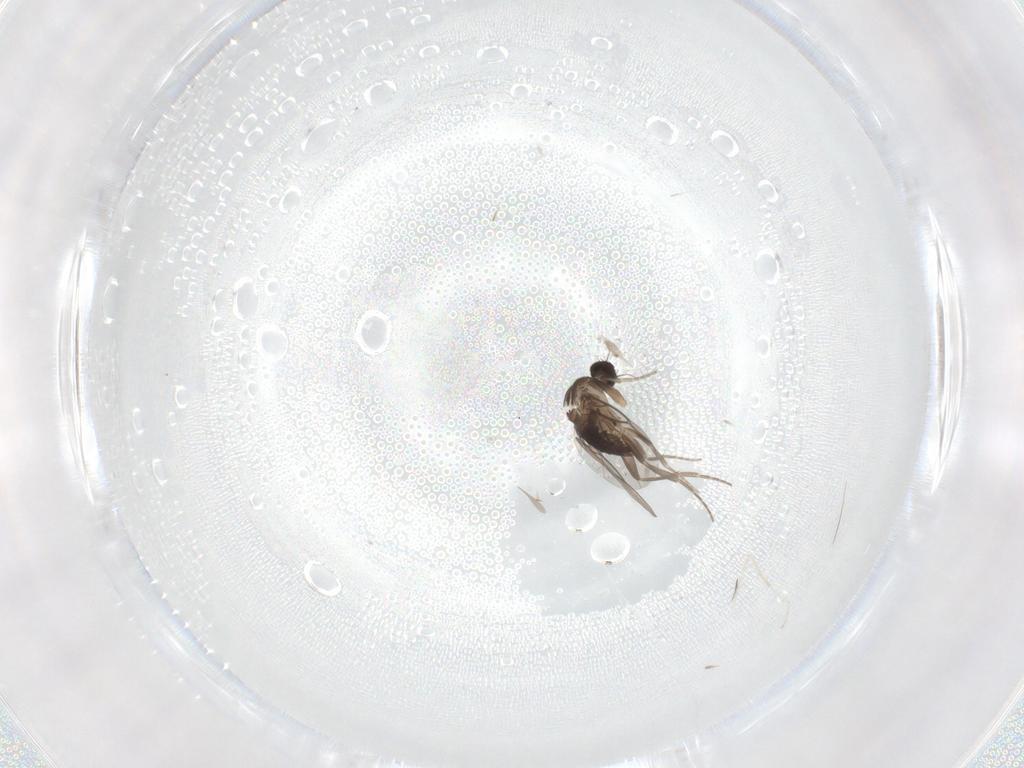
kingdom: Animalia
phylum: Arthropoda
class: Insecta
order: Diptera
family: Phoridae
